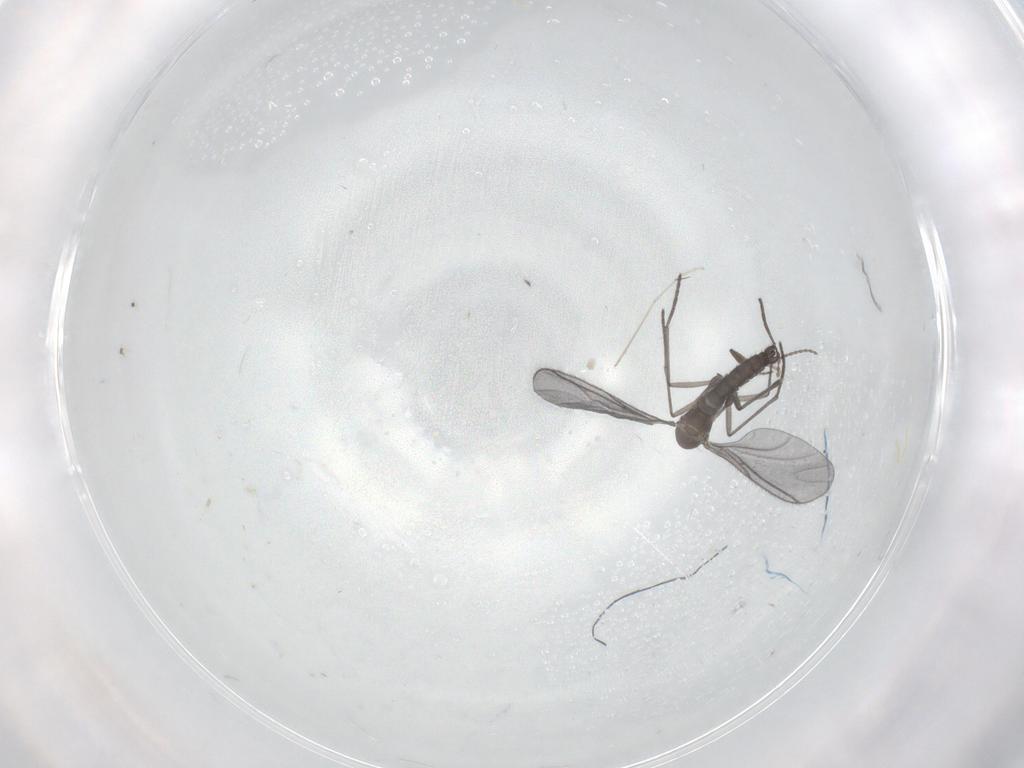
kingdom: Animalia
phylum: Arthropoda
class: Insecta
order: Diptera
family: Sciaridae
